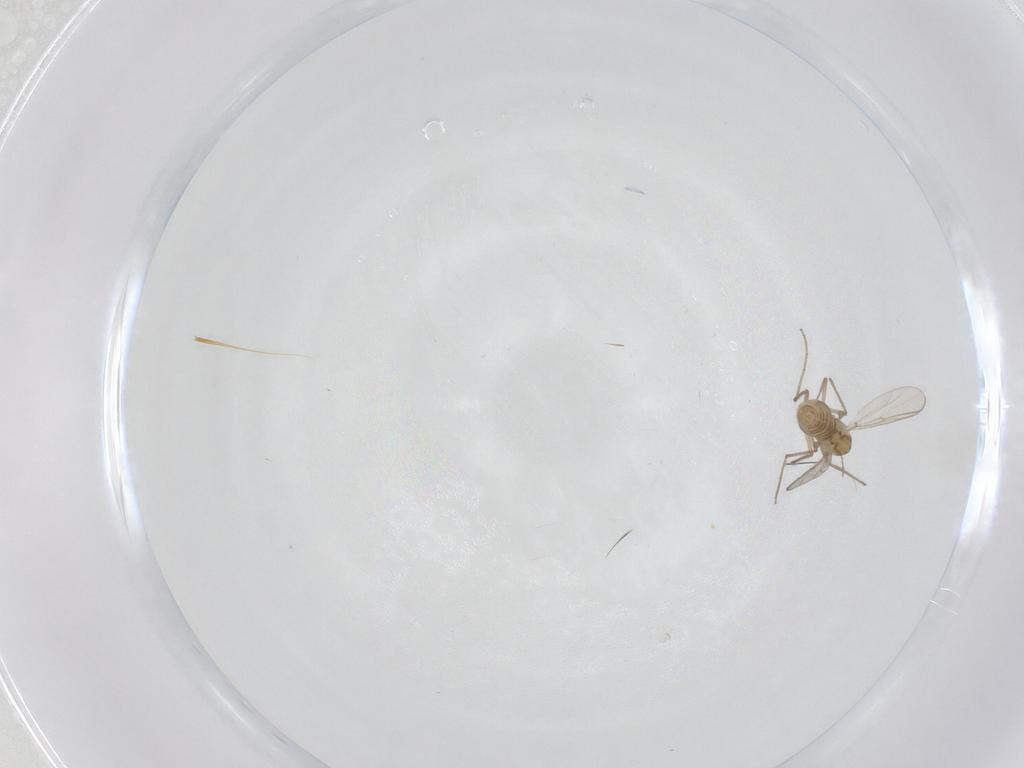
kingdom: Animalia
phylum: Arthropoda
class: Insecta
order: Diptera
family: Chironomidae
